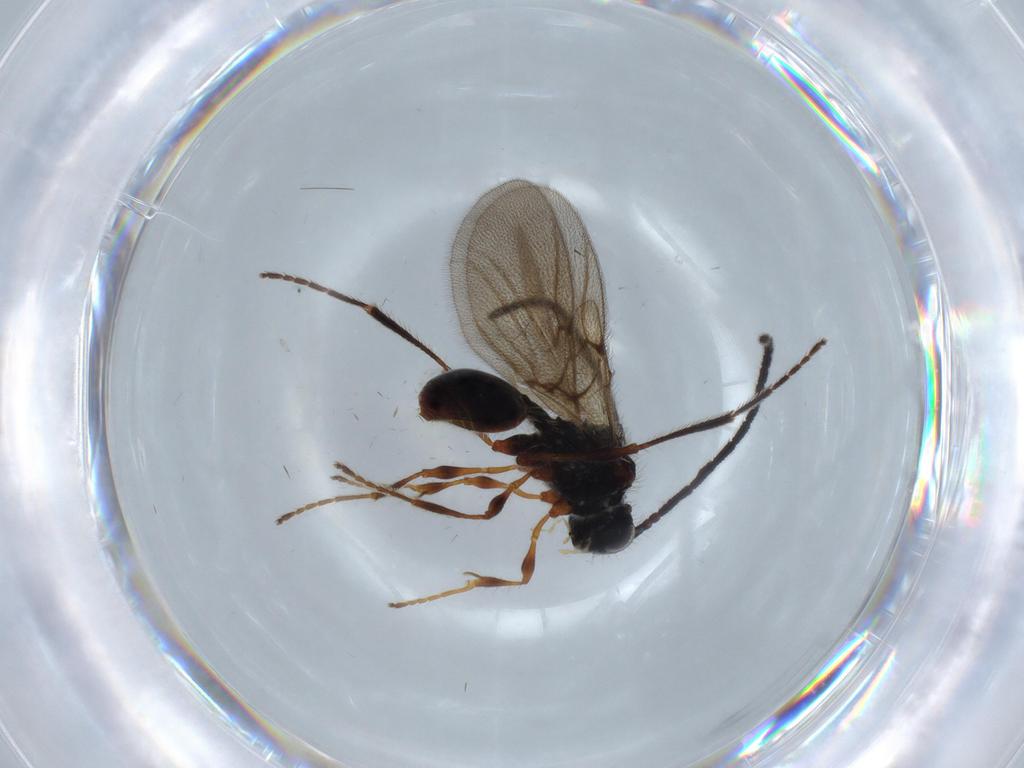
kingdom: Animalia
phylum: Arthropoda
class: Insecta
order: Hymenoptera
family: Diapriidae
